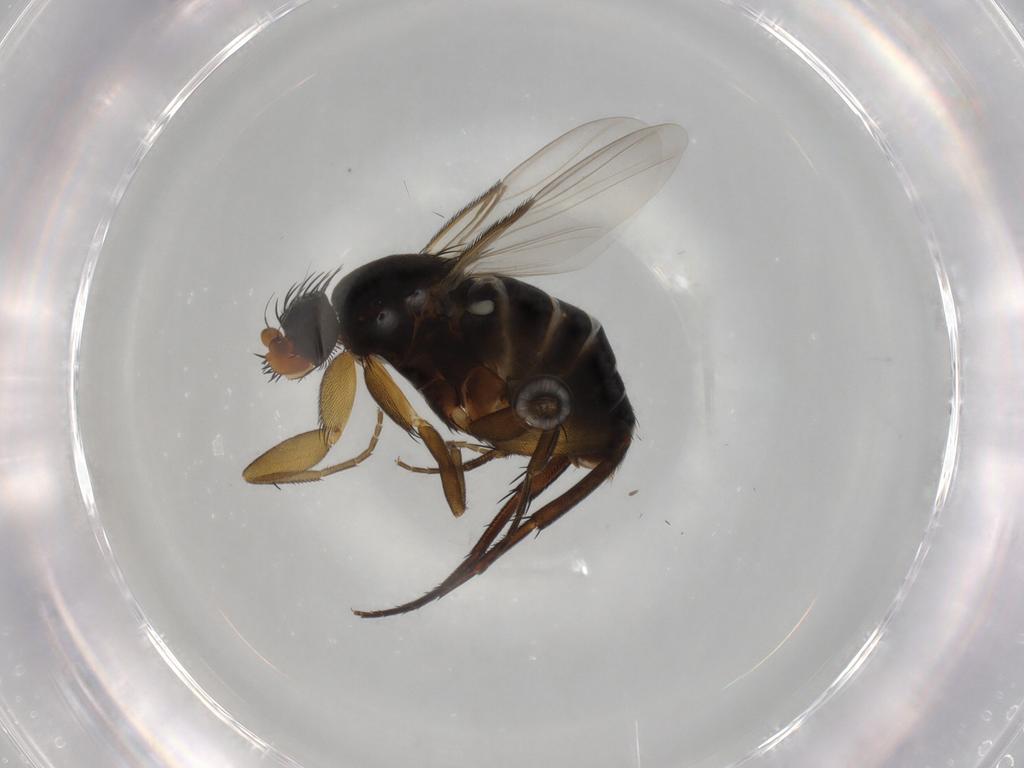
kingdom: Animalia
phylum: Arthropoda
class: Insecta
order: Diptera
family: Phoridae
